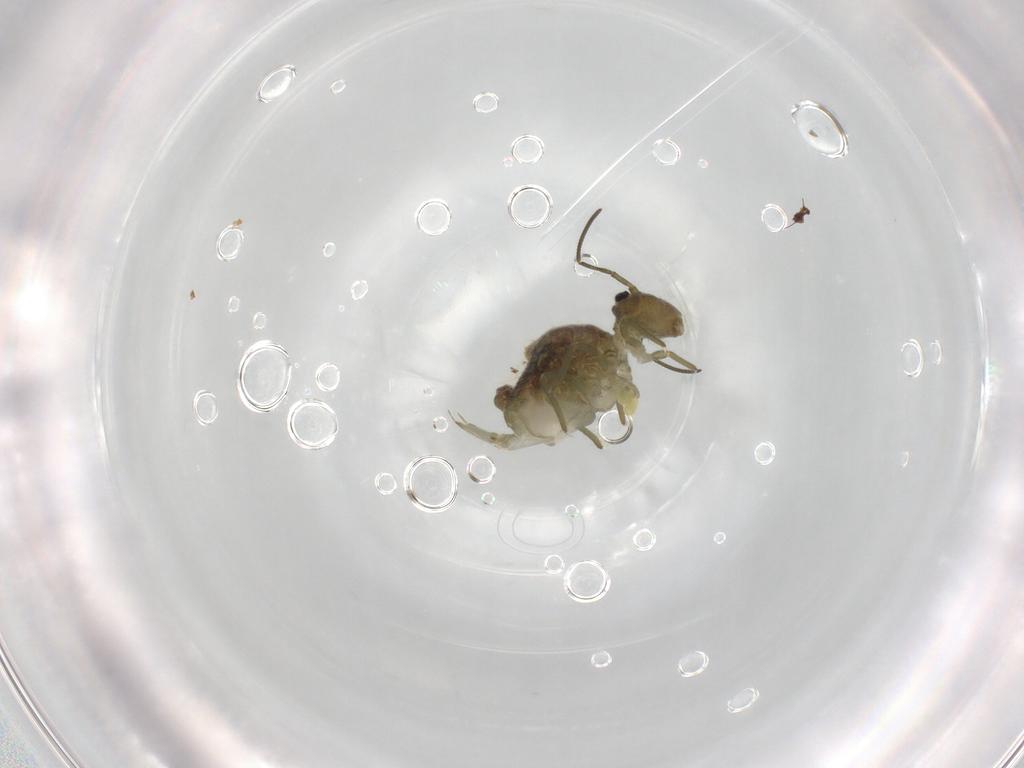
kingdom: Animalia
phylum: Arthropoda
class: Collembola
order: Symphypleona
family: Sminthuridae
